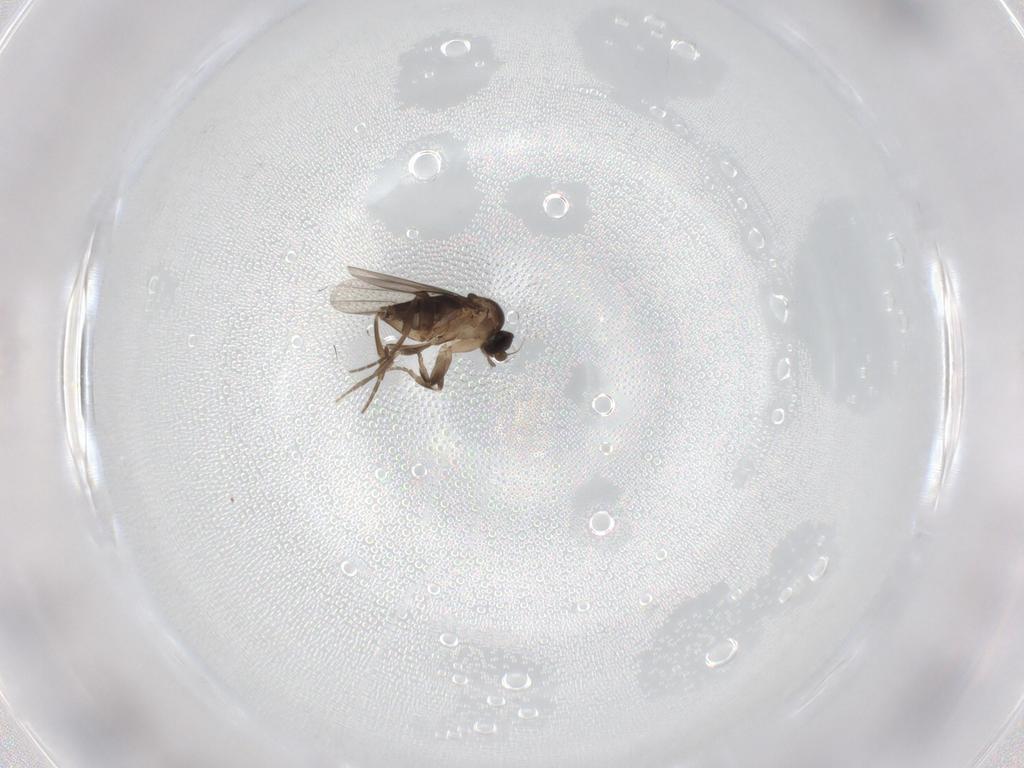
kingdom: Animalia
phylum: Arthropoda
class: Insecta
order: Diptera
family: Phoridae
